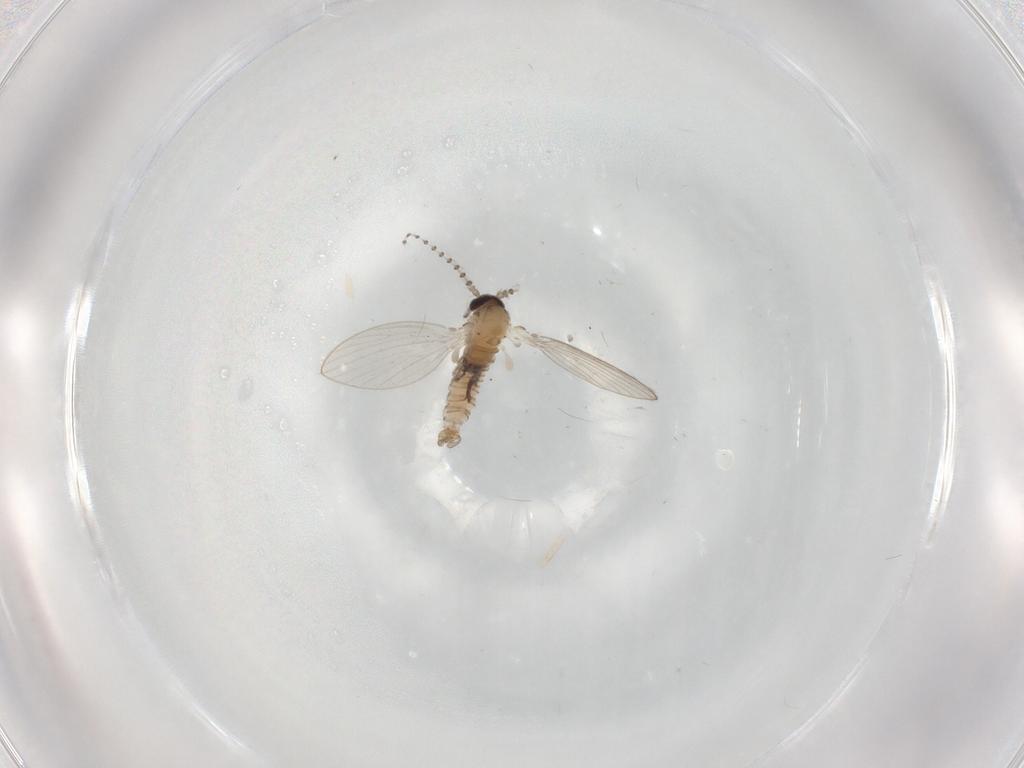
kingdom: Animalia
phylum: Arthropoda
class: Insecta
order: Diptera
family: Psychodidae
